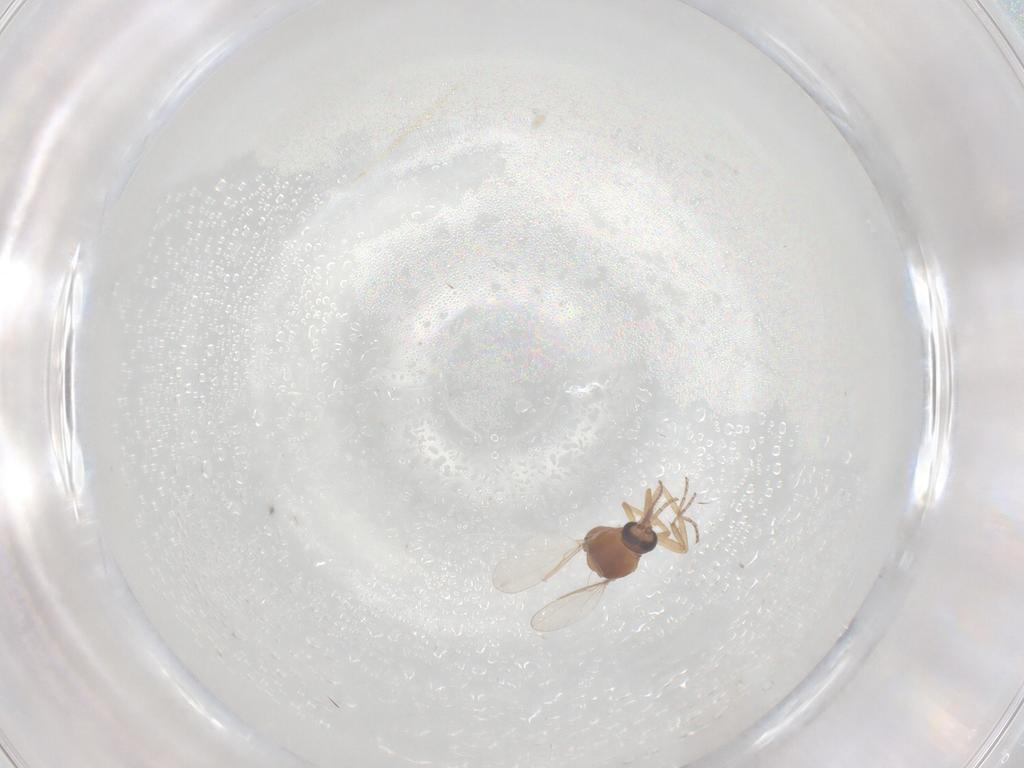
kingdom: Animalia
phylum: Arthropoda
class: Insecta
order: Diptera
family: Ceratopogonidae
